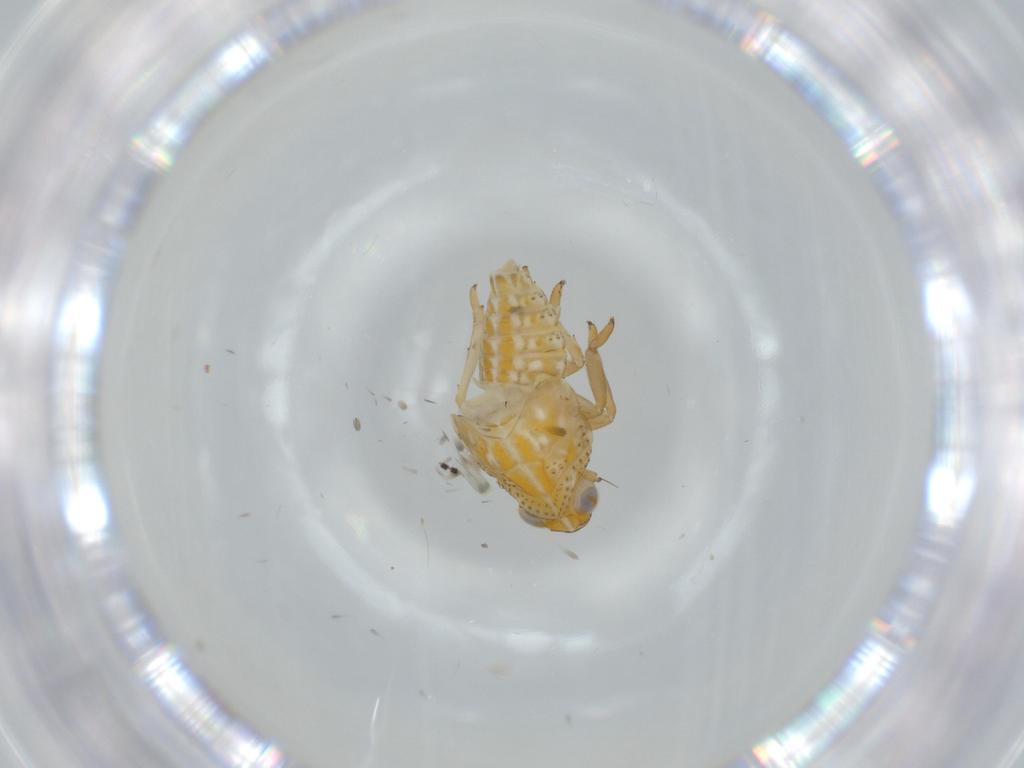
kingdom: Animalia
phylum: Arthropoda
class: Insecta
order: Hemiptera
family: Issidae
